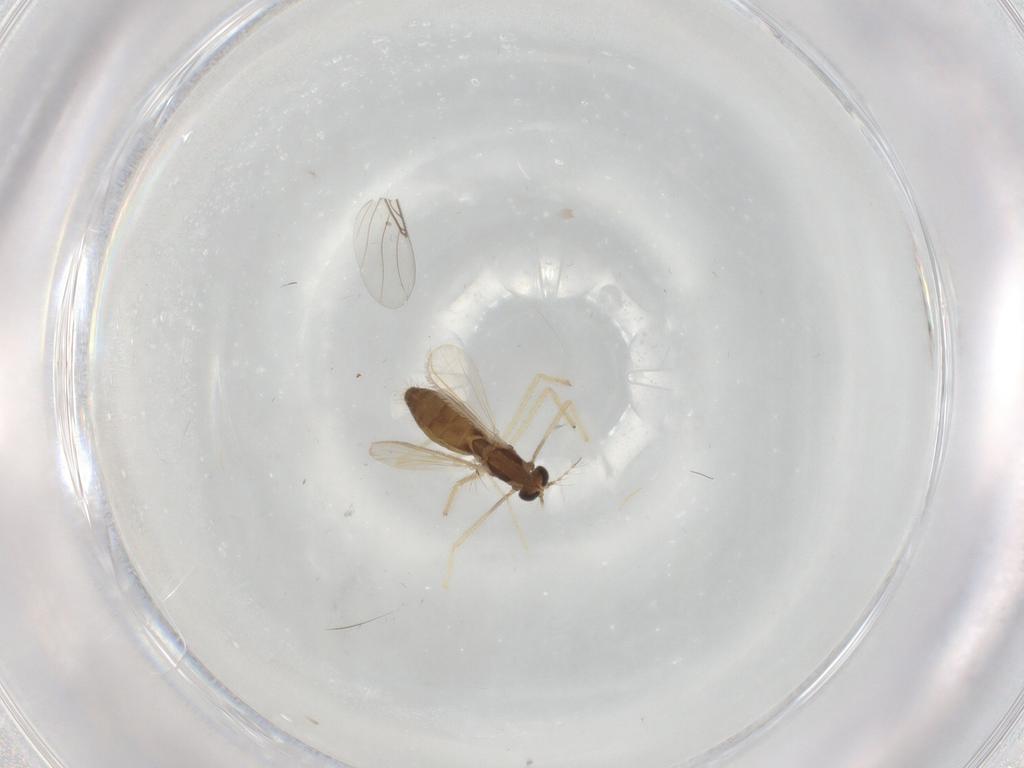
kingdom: Animalia
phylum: Arthropoda
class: Insecta
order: Diptera
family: Chironomidae
